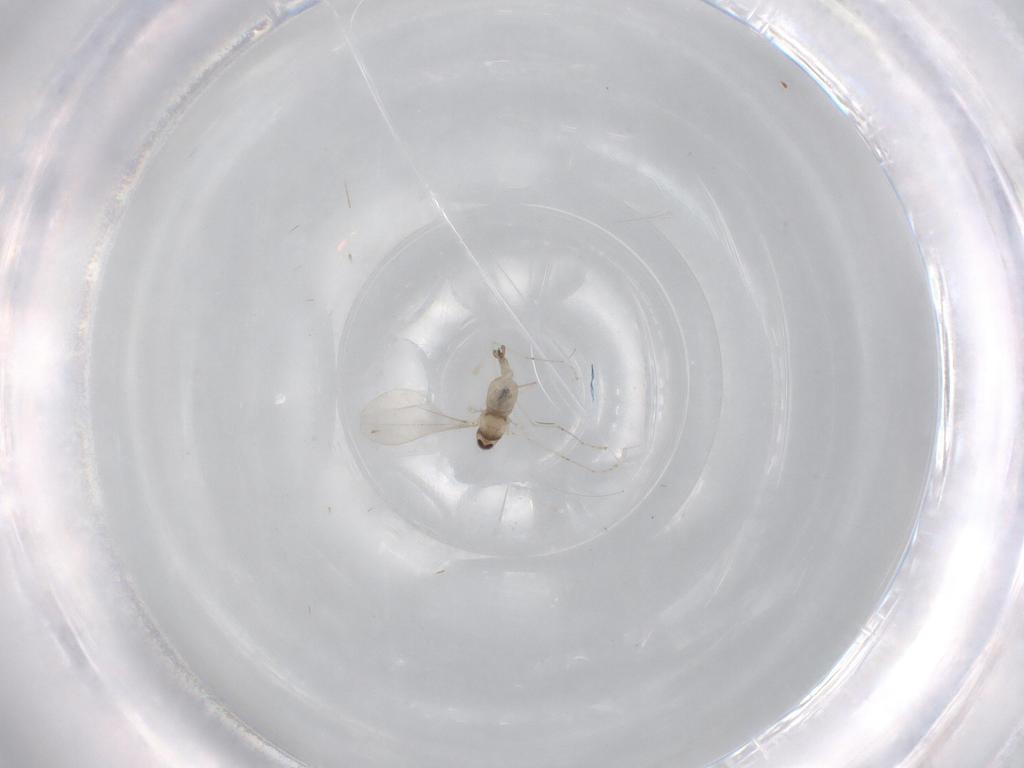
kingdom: Animalia
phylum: Arthropoda
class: Insecta
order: Diptera
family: Cecidomyiidae
